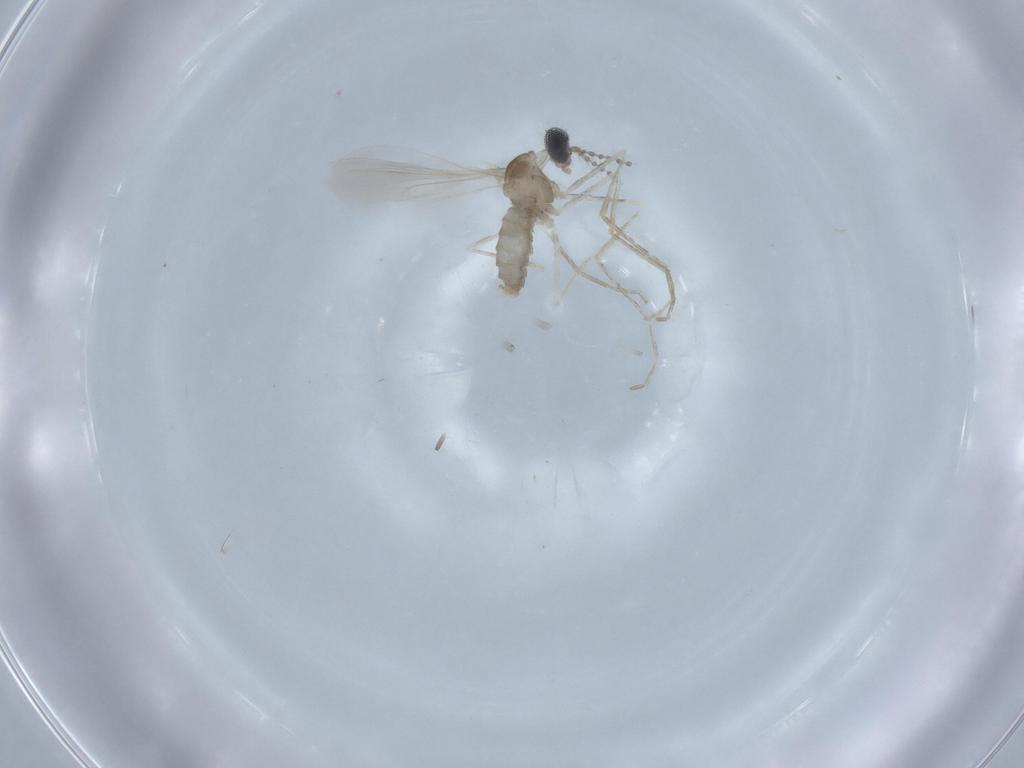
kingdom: Animalia
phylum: Arthropoda
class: Insecta
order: Diptera
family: Cecidomyiidae
